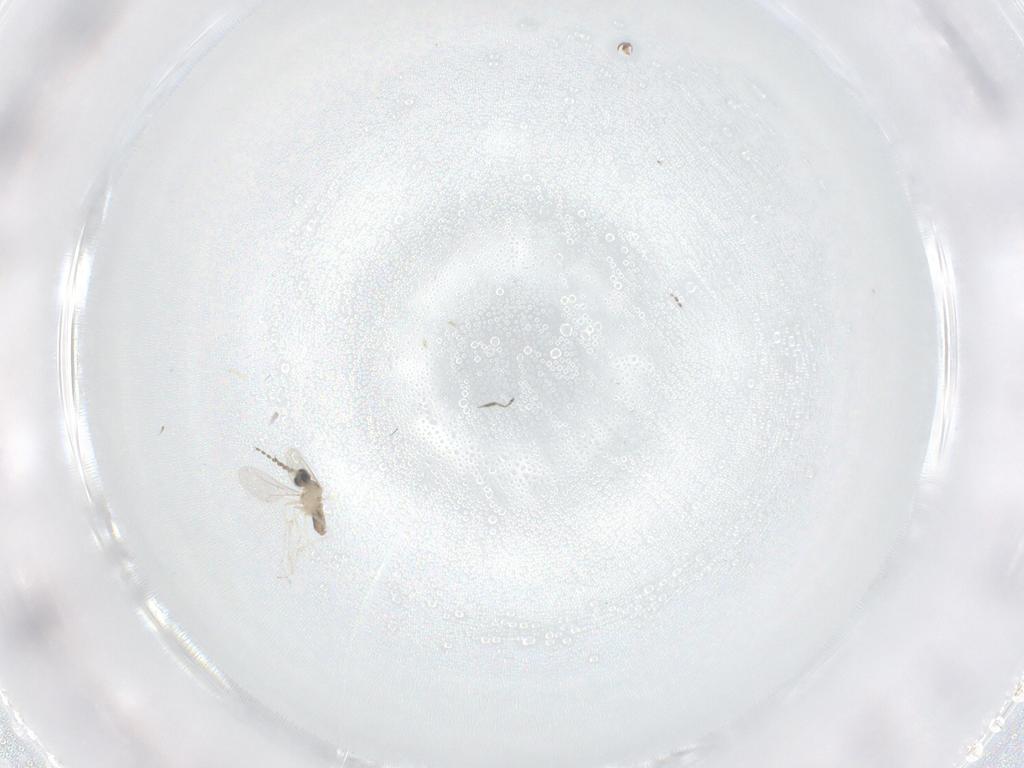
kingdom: Animalia
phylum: Arthropoda
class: Insecta
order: Diptera
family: Cecidomyiidae
